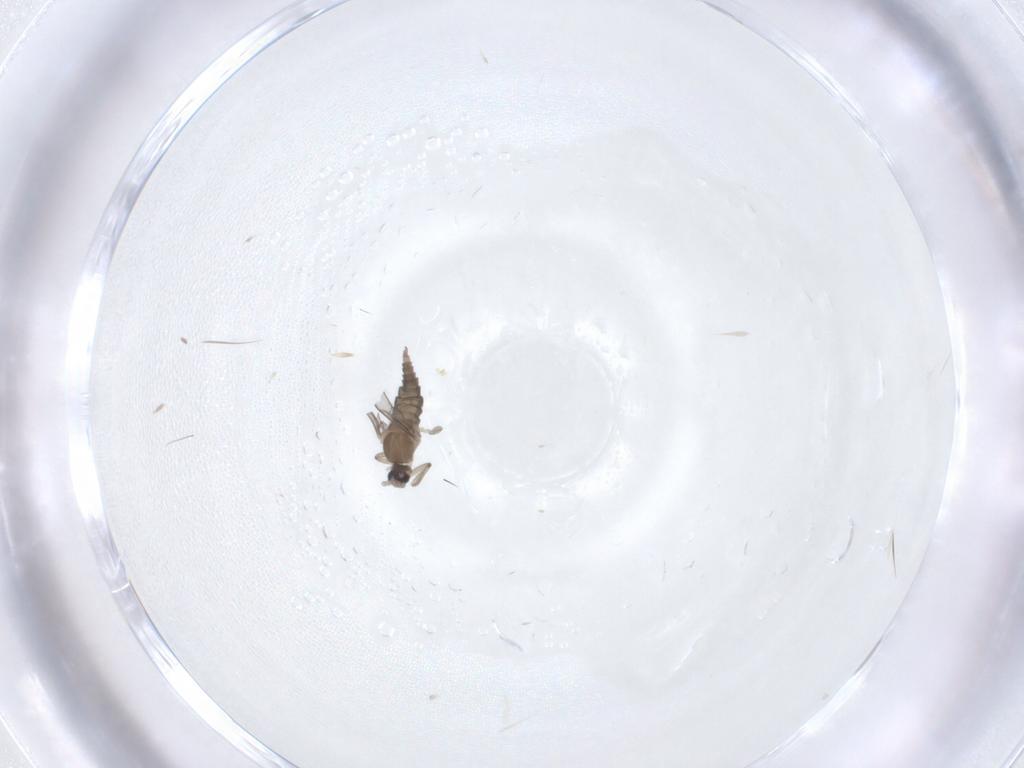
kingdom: Animalia
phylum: Arthropoda
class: Insecta
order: Diptera
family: Cecidomyiidae
